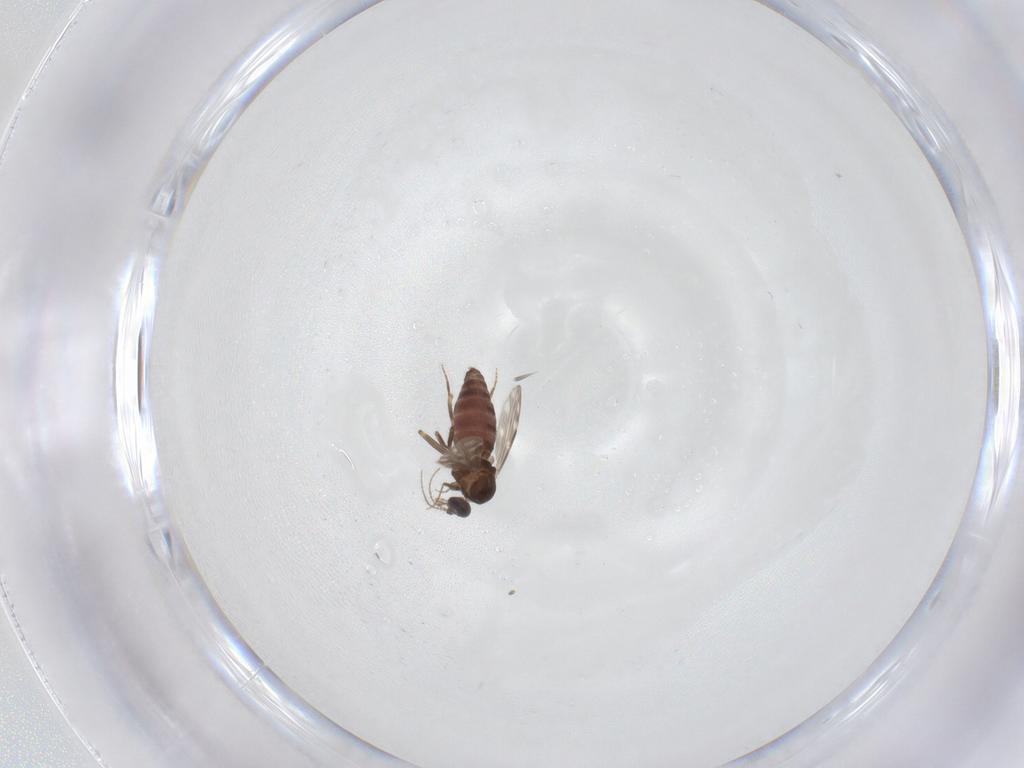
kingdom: Animalia
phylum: Arthropoda
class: Insecta
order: Diptera
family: Ceratopogonidae
